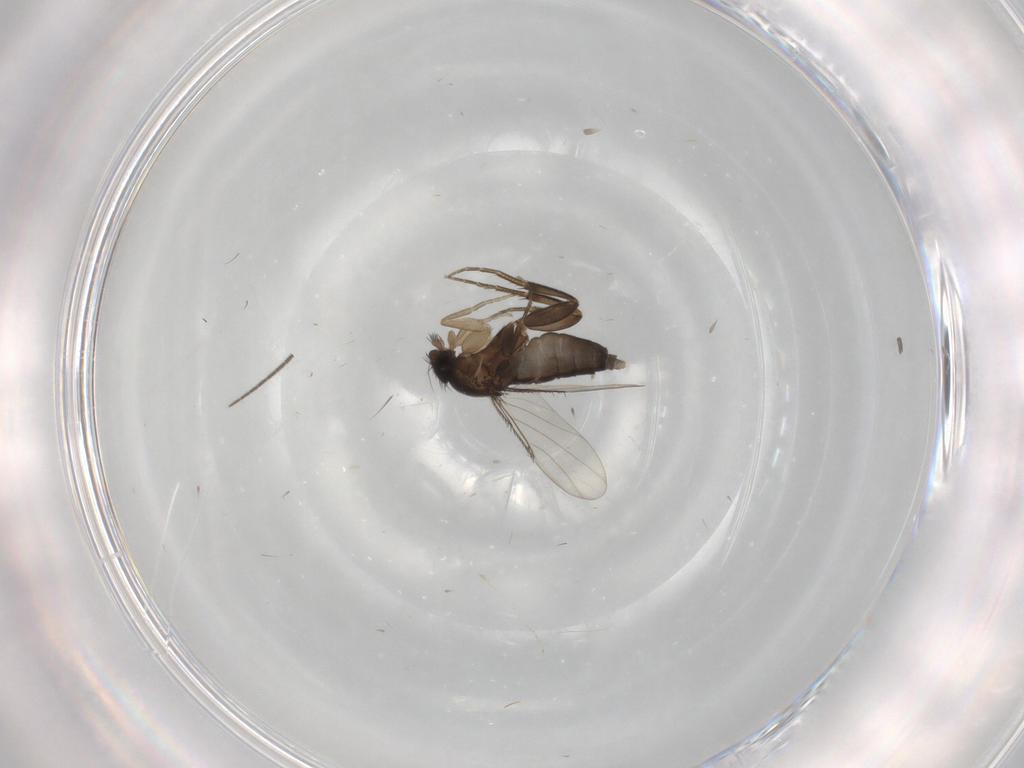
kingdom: Animalia
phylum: Arthropoda
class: Insecta
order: Diptera
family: Phoridae
